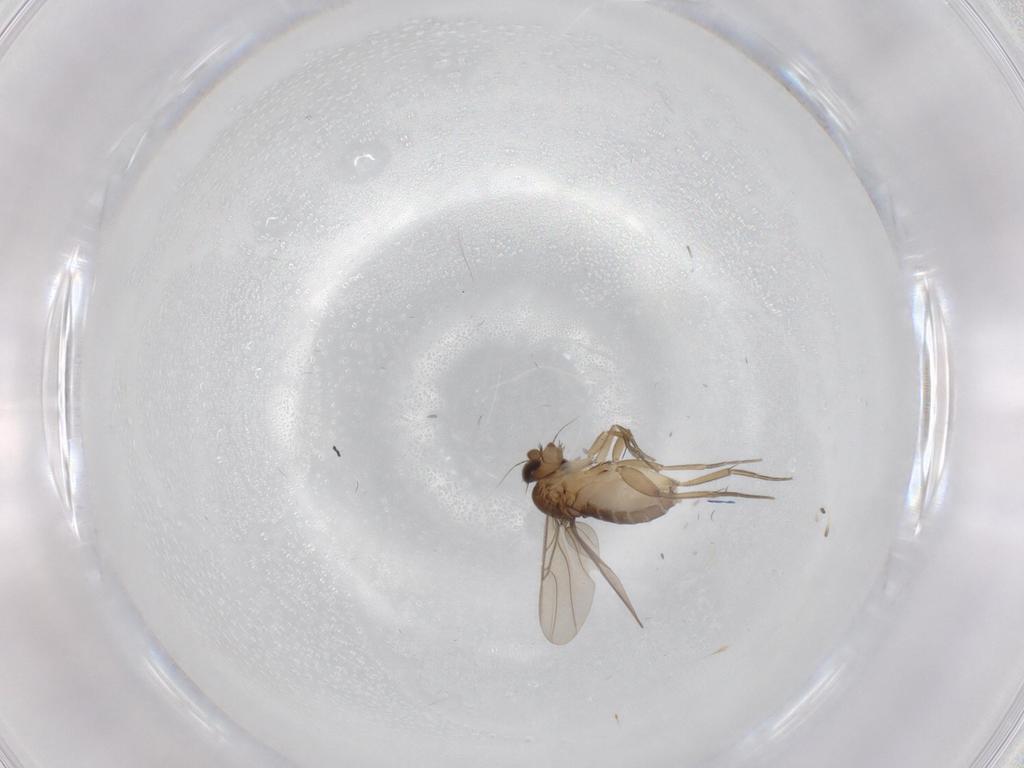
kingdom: Animalia
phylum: Arthropoda
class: Insecta
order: Diptera
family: Phoridae
